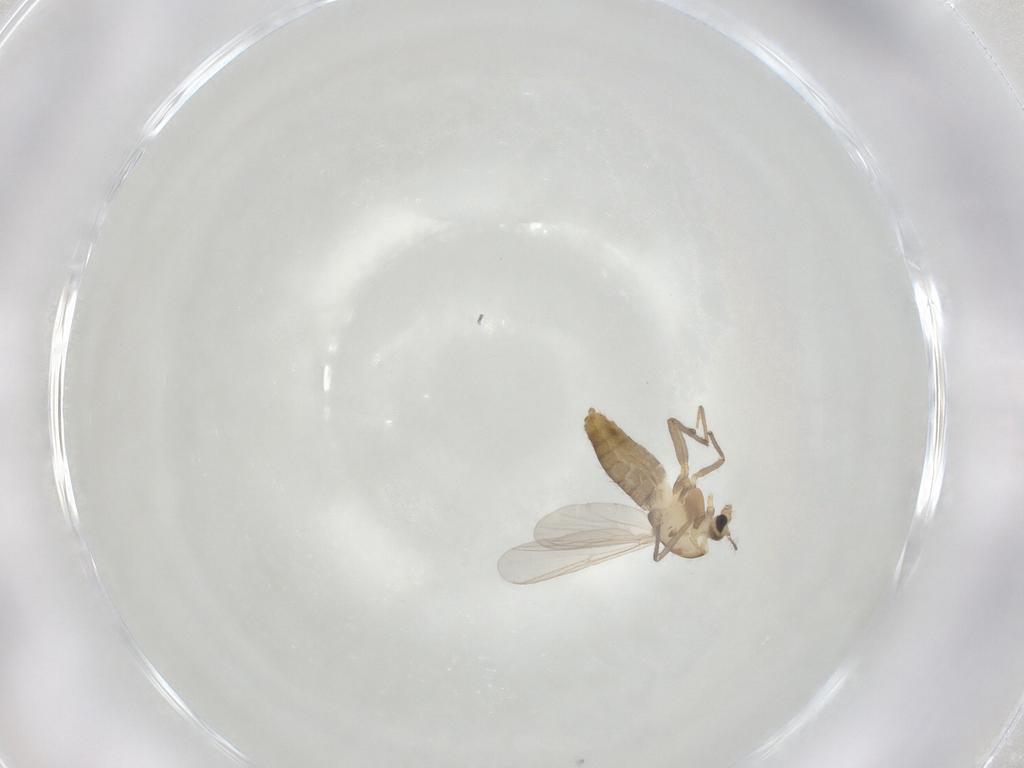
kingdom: Animalia
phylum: Arthropoda
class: Insecta
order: Diptera
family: Chironomidae
